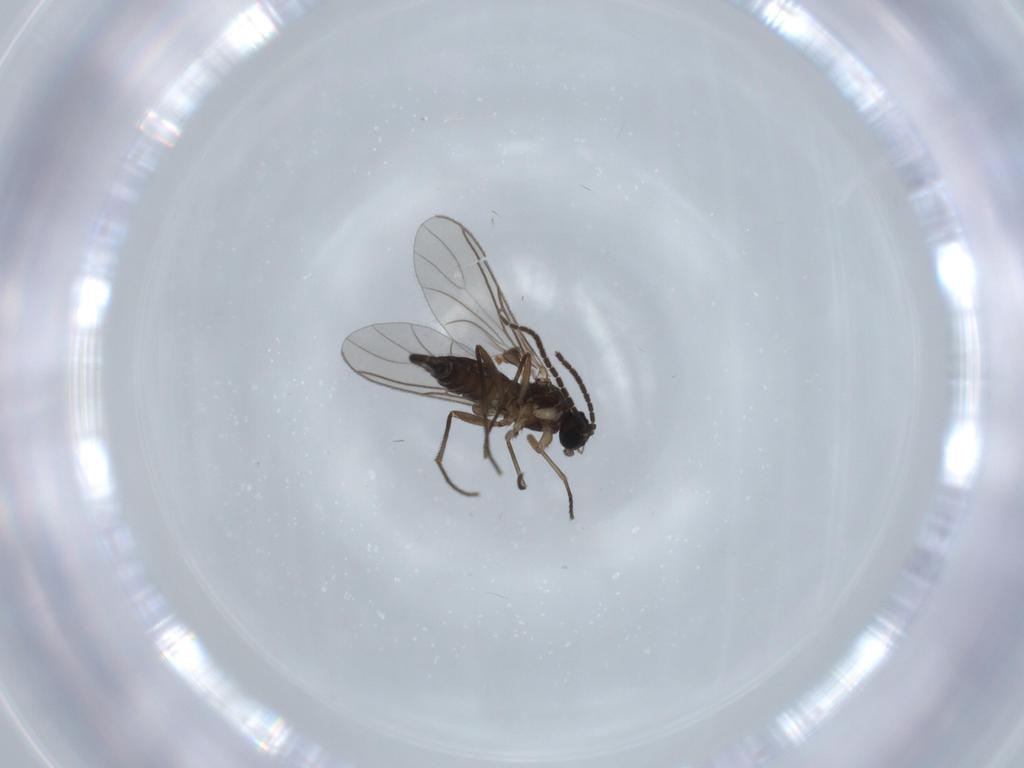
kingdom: Animalia
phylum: Arthropoda
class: Insecta
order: Diptera
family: Sciaridae
